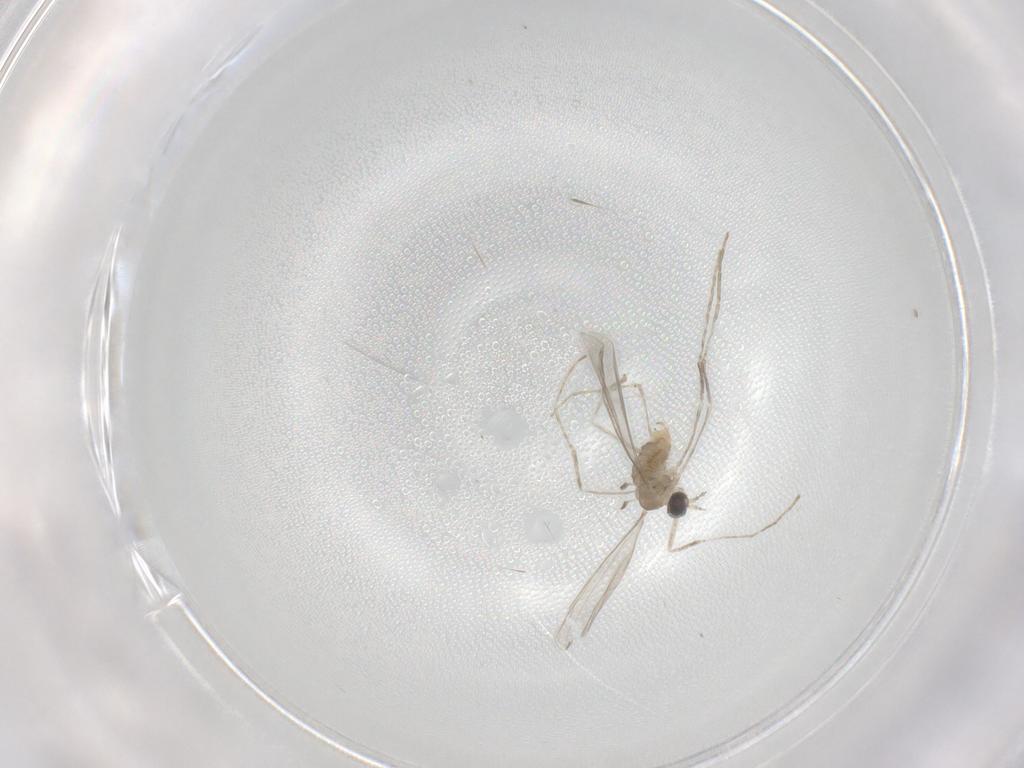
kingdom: Animalia
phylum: Arthropoda
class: Insecta
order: Diptera
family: Cecidomyiidae
